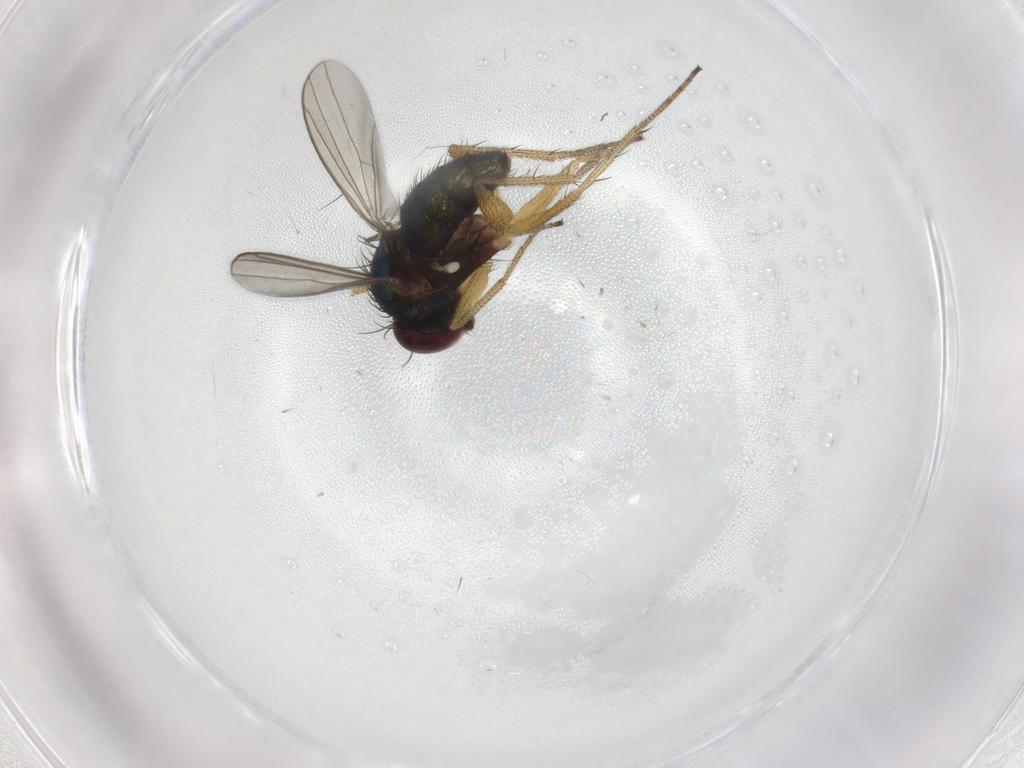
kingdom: Animalia
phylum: Arthropoda
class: Insecta
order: Diptera
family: Dolichopodidae
